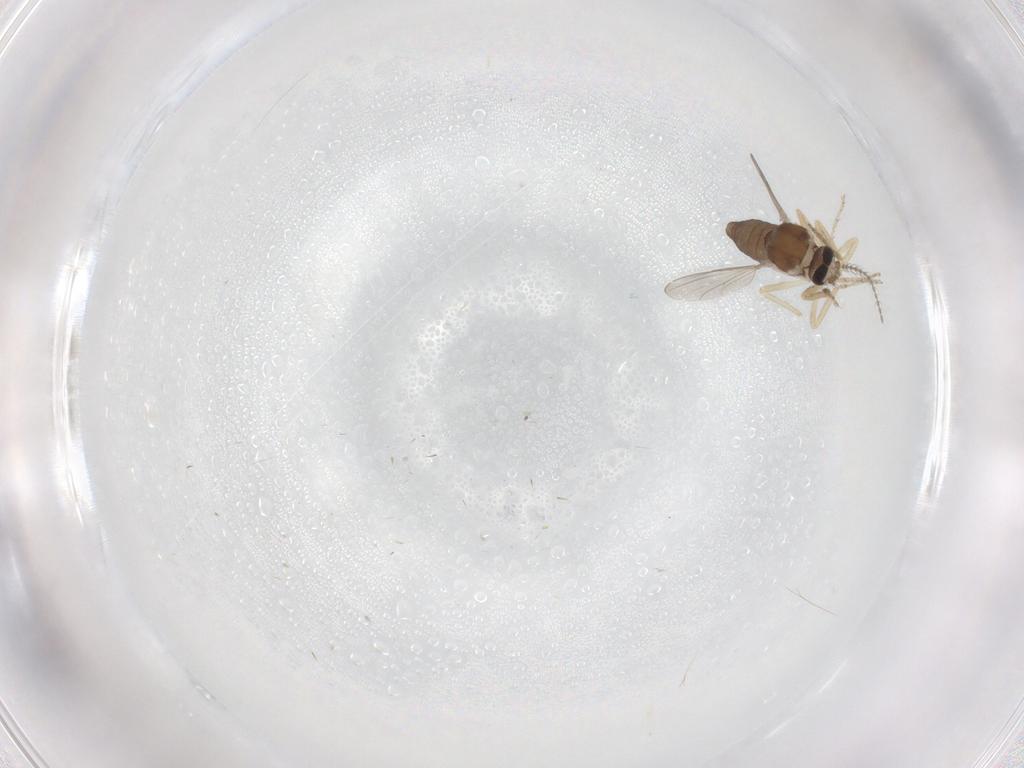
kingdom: Animalia
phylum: Arthropoda
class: Insecta
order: Diptera
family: Ceratopogonidae
